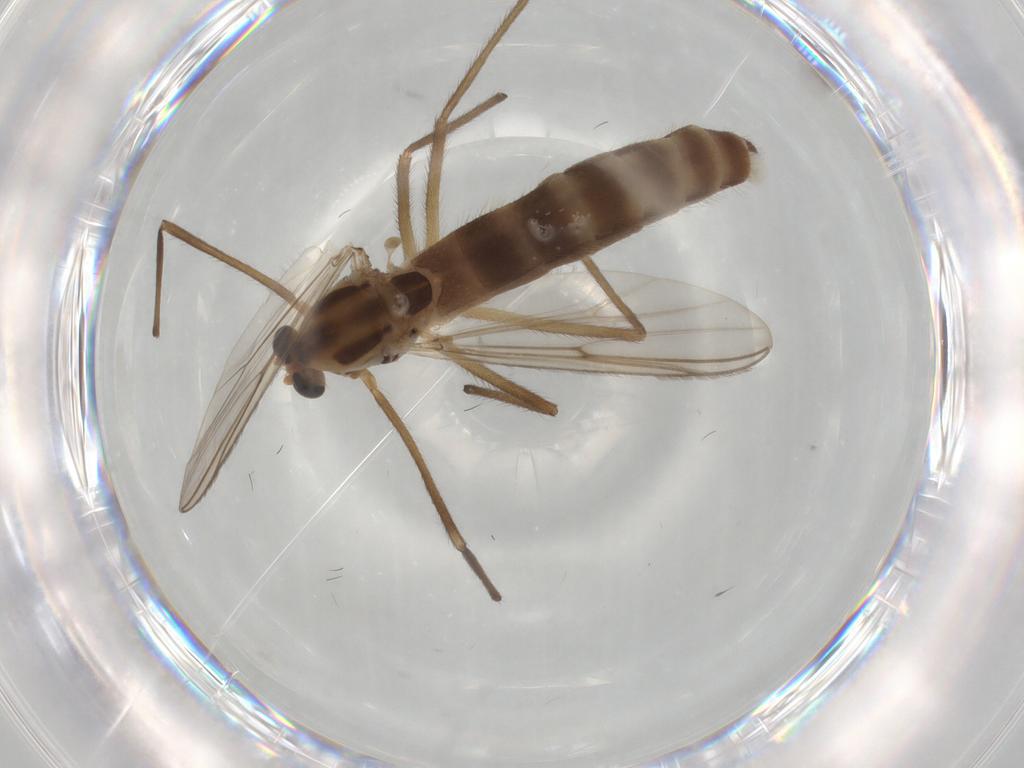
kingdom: Animalia
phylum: Arthropoda
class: Insecta
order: Diptera
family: Chironomidae
